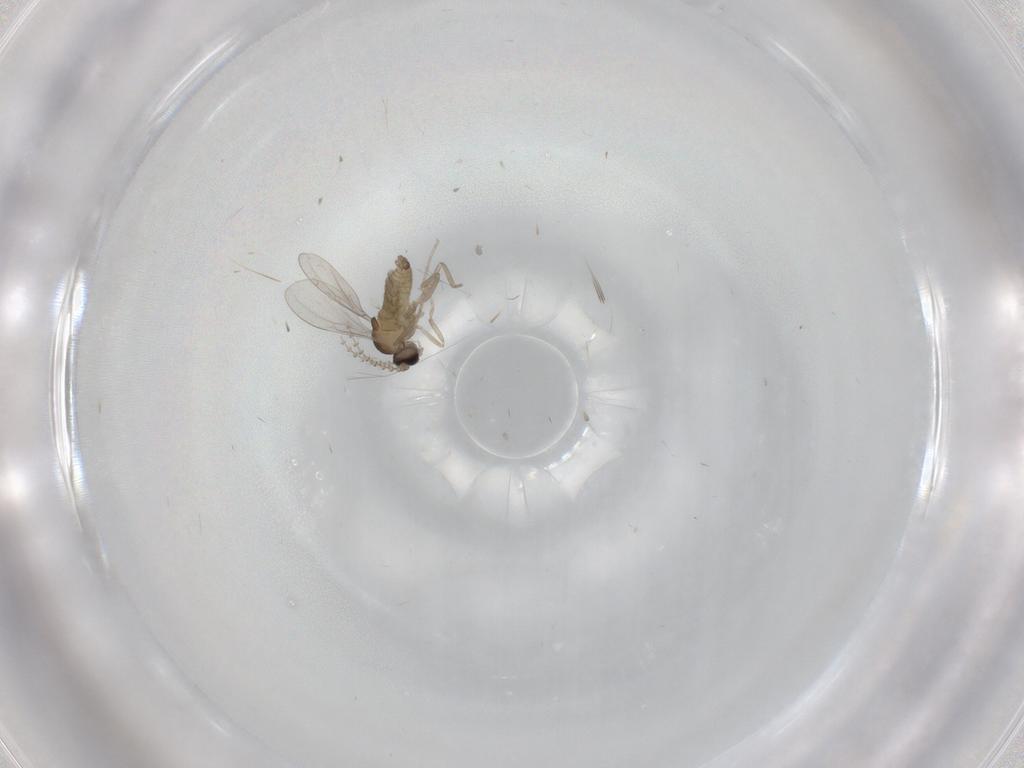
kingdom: Animalia
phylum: Arthropoda
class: Insecta
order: Diptera
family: Cecidomyiidae
